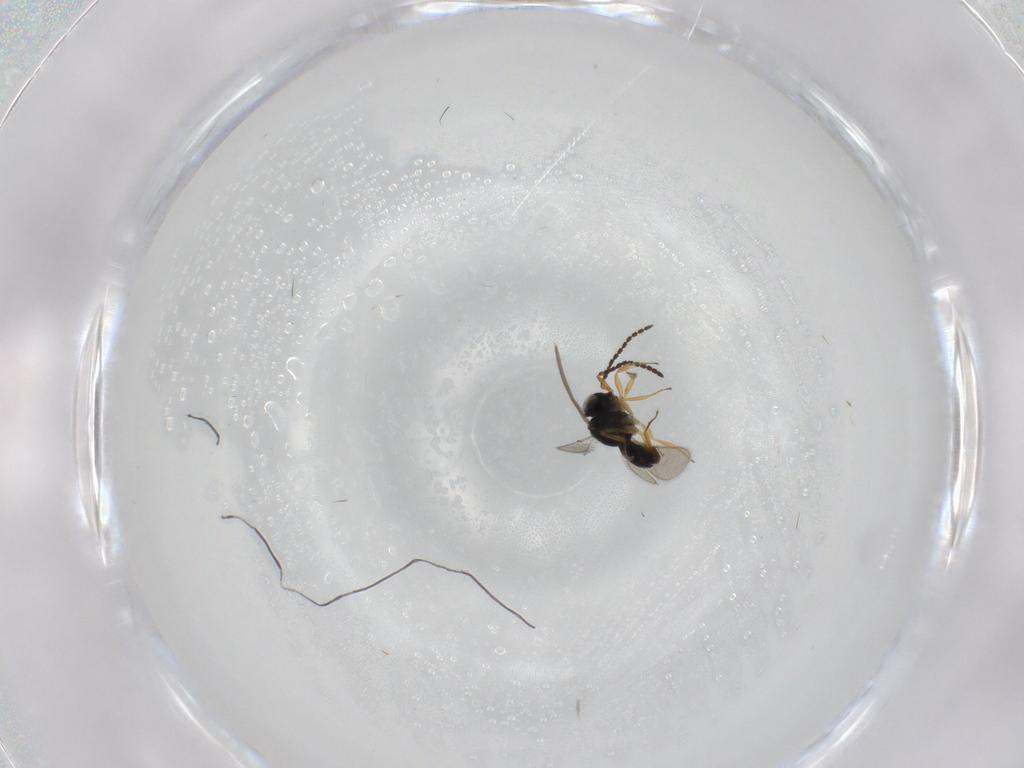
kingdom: Animalia
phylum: Arthropoda
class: Insecta
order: Hymenoptera
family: Scelionidae
